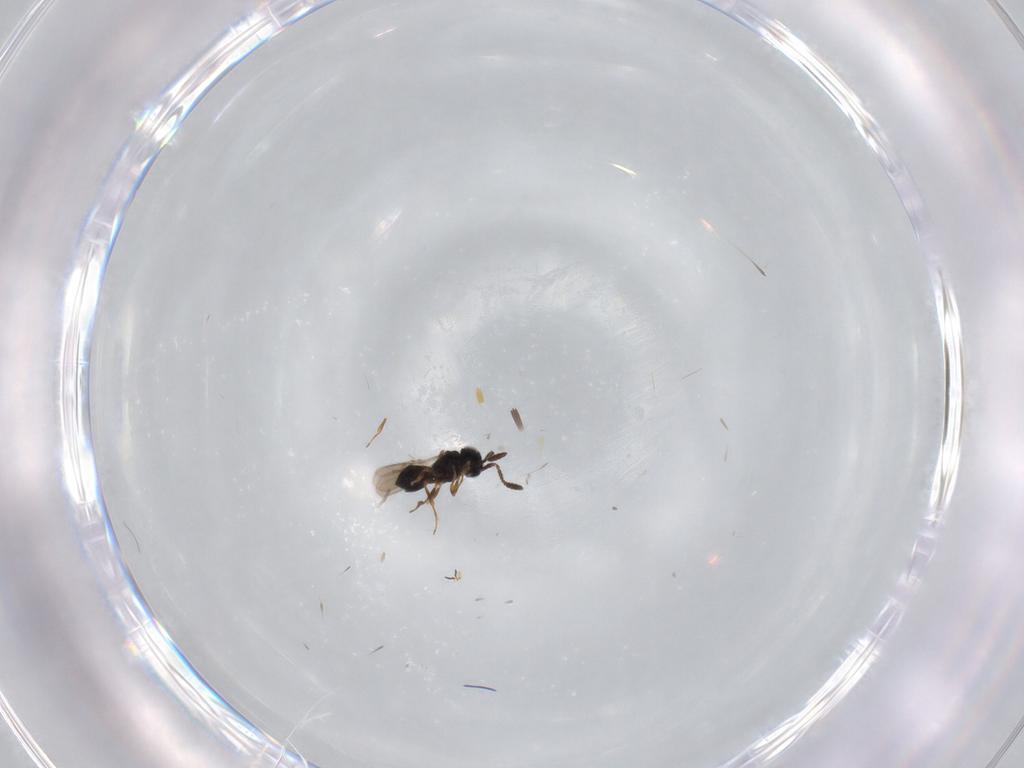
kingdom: Animalia
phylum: Arthropoda
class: Insecta
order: Hymenoptera
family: Scelionidae
